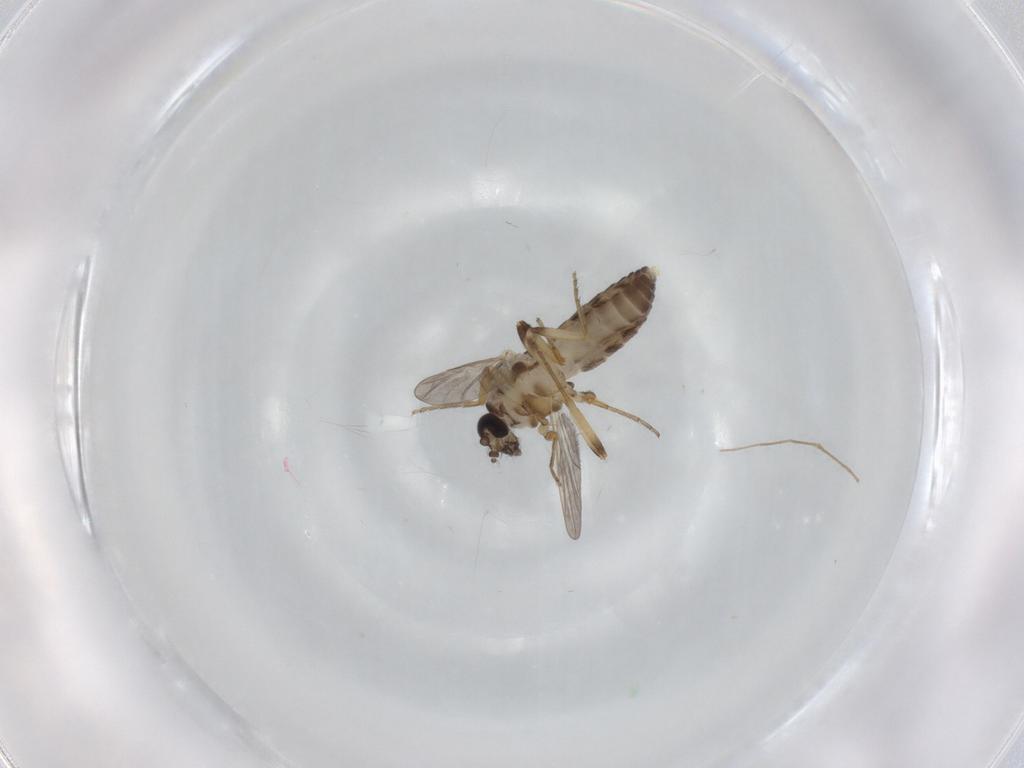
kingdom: Animalia
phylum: Arthropoda
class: Insecta
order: Diptera
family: Ceratopogonidae
